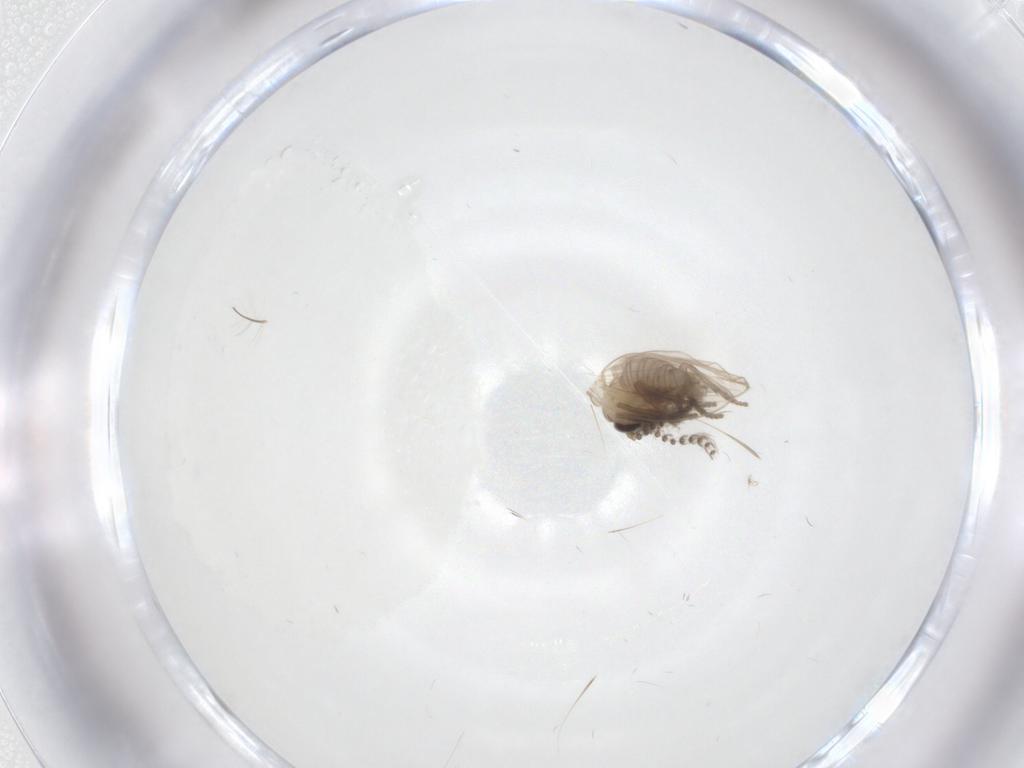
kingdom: Animalia
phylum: Arthropoda
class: Insecta
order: Diptera
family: Psychodidae
